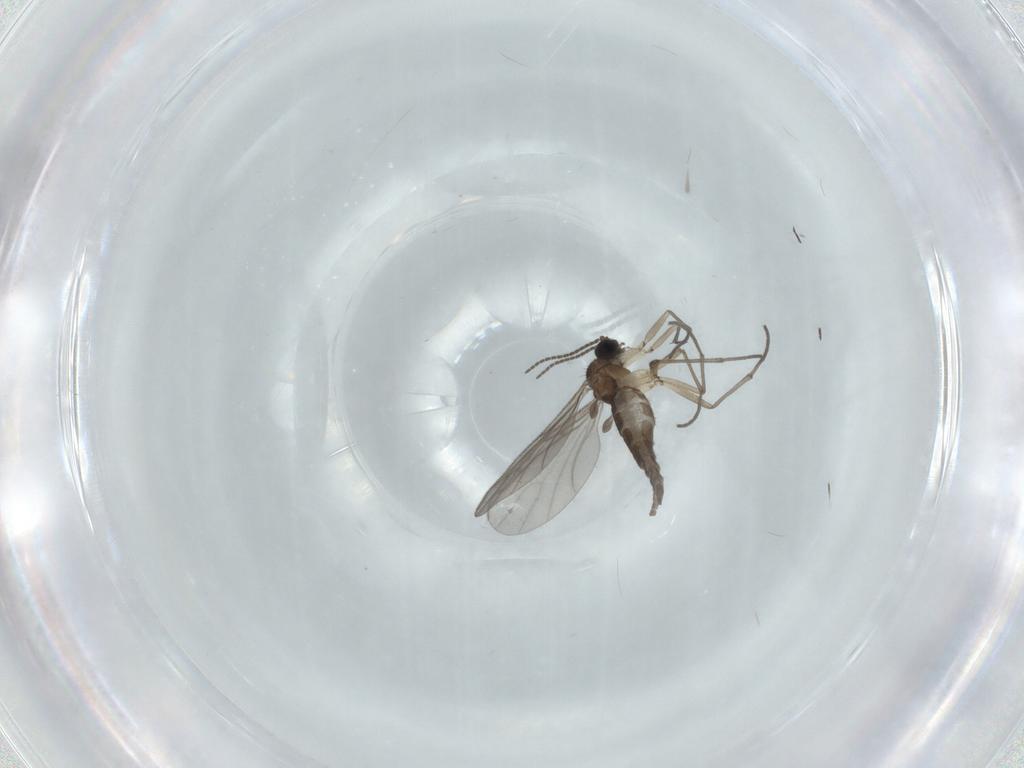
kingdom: Animalia
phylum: Arthropoda
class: Insecta
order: Diptera
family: Sciaridae
